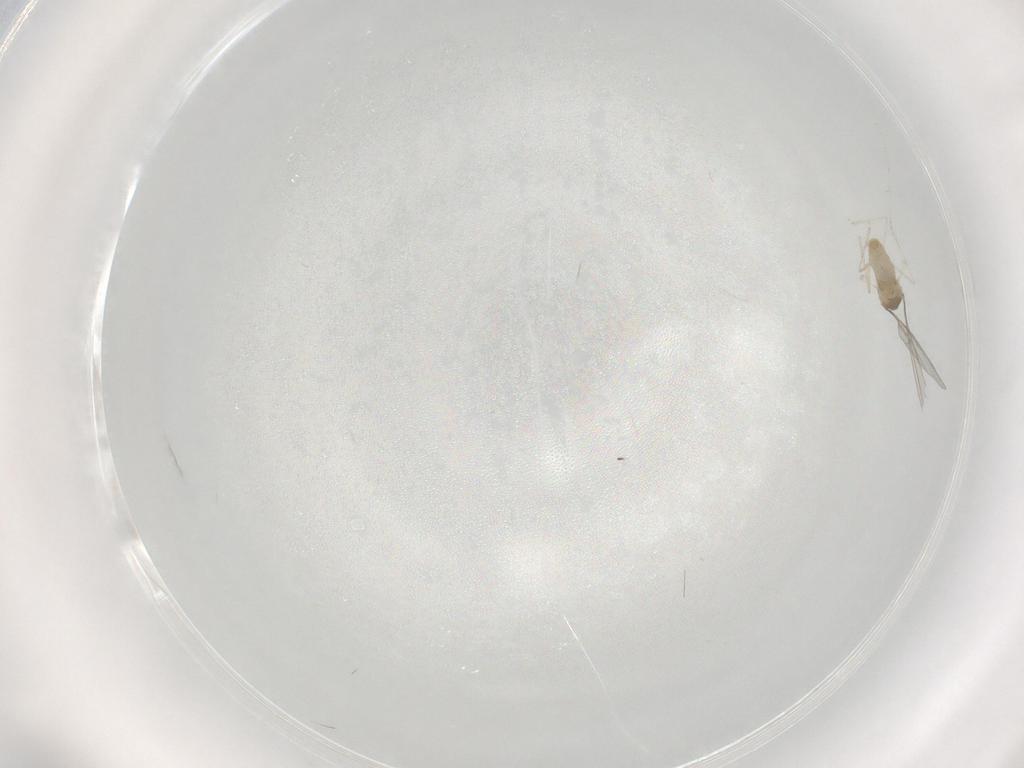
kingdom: Animalia
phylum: Arthropoda
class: Insecta
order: Diptera
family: Cecidomyiidae
